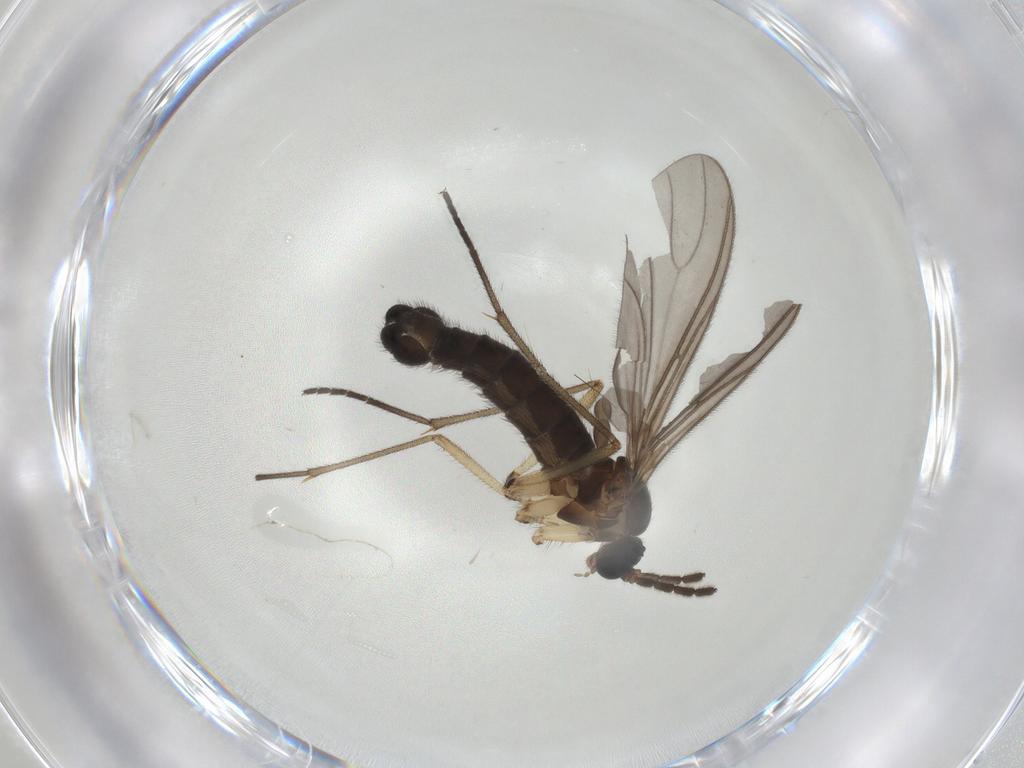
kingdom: Animalia
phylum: Arthropoda
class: Insecta
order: Diptera
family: Sciaridae
